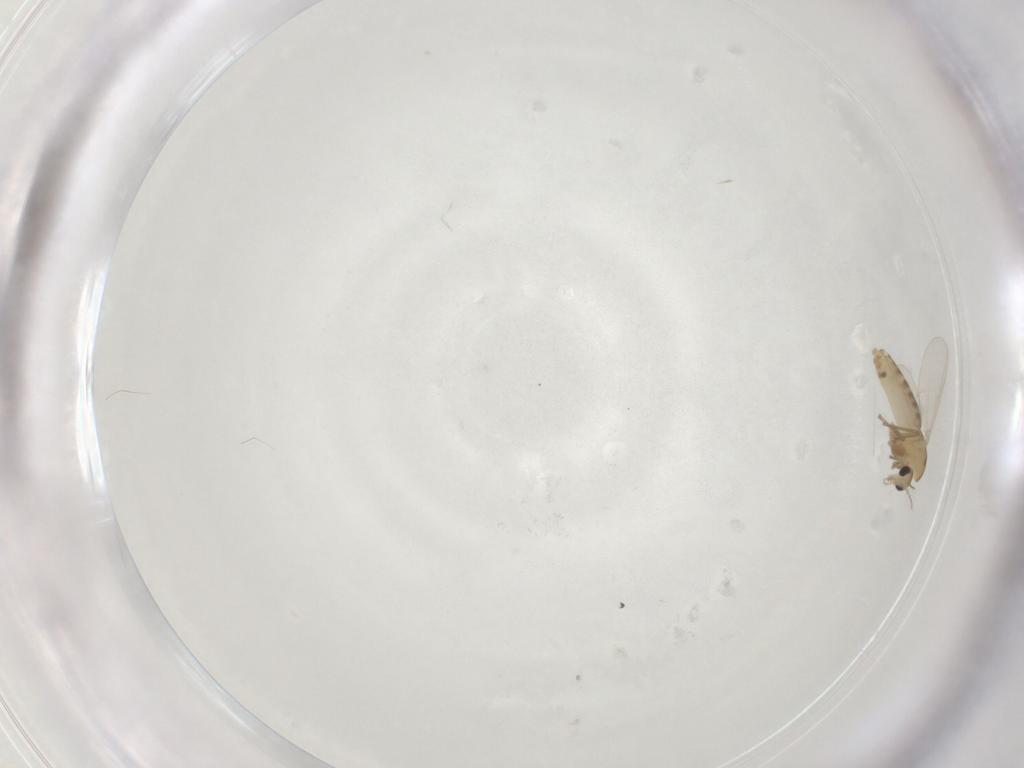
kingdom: Animalia
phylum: Arthropoda
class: Insecta
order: Diptera
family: Chironomidae
